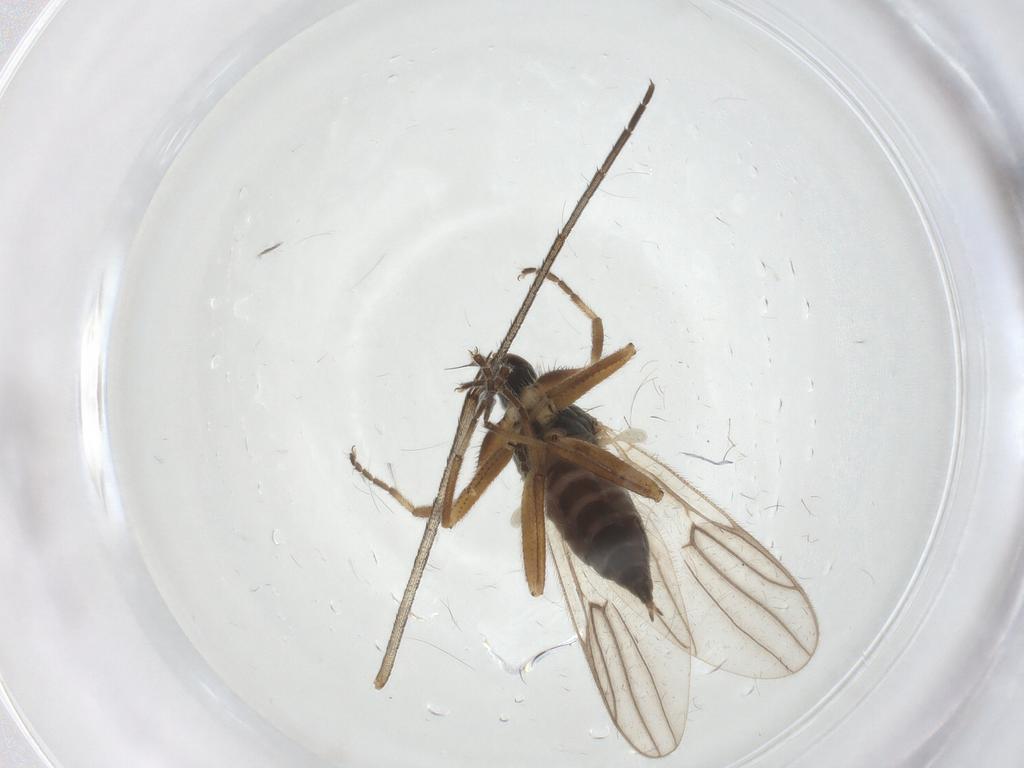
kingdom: Animalia
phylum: Arthropoda
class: Insecta
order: Diptera
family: Hybotidae
